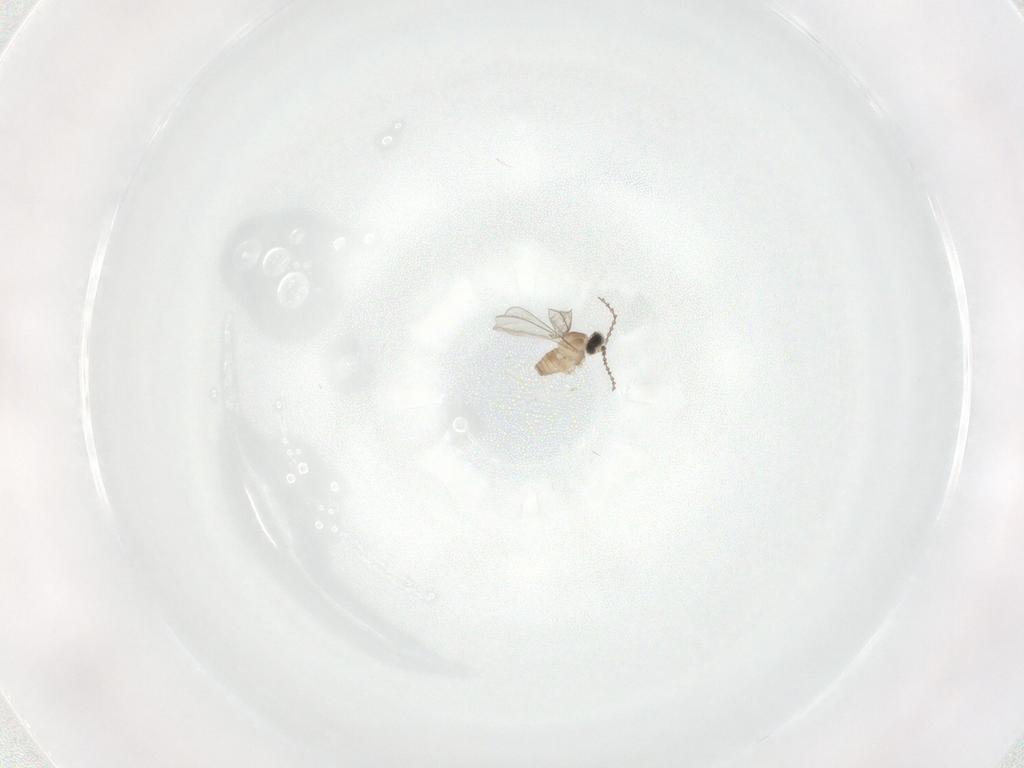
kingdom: Animalia
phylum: Arthropoda
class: Insecta
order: Diptera
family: Cecidomyiidae
